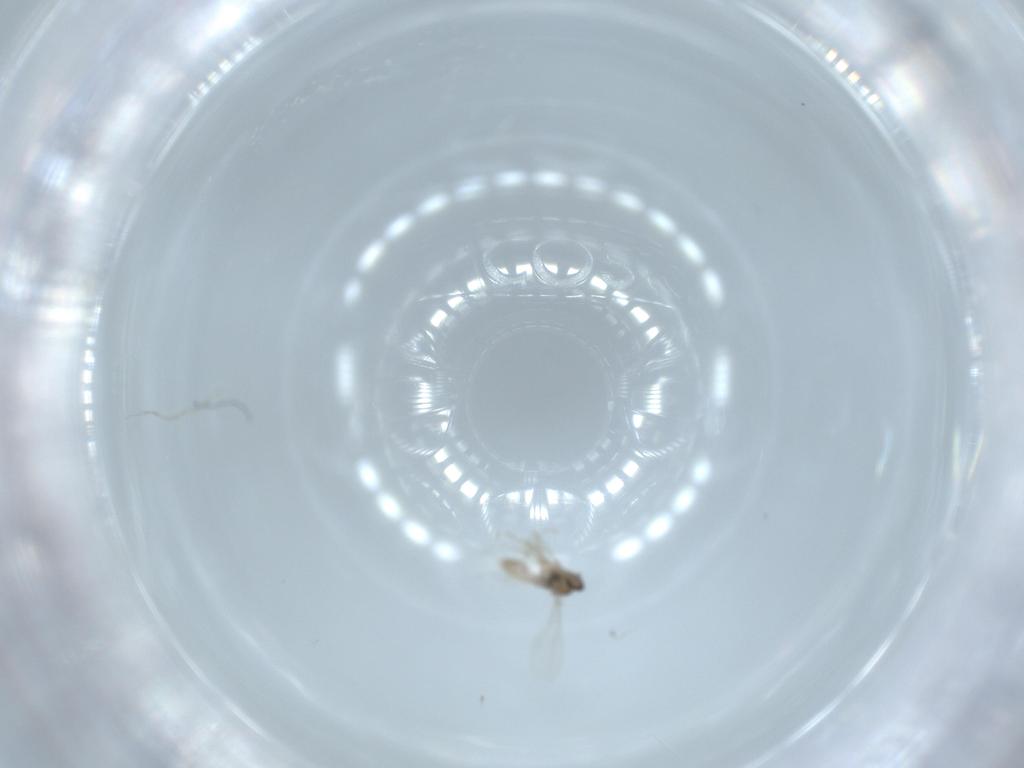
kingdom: Animalia
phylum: Arthropoda
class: Insecta
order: Diptera
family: Cecidomyiidae
